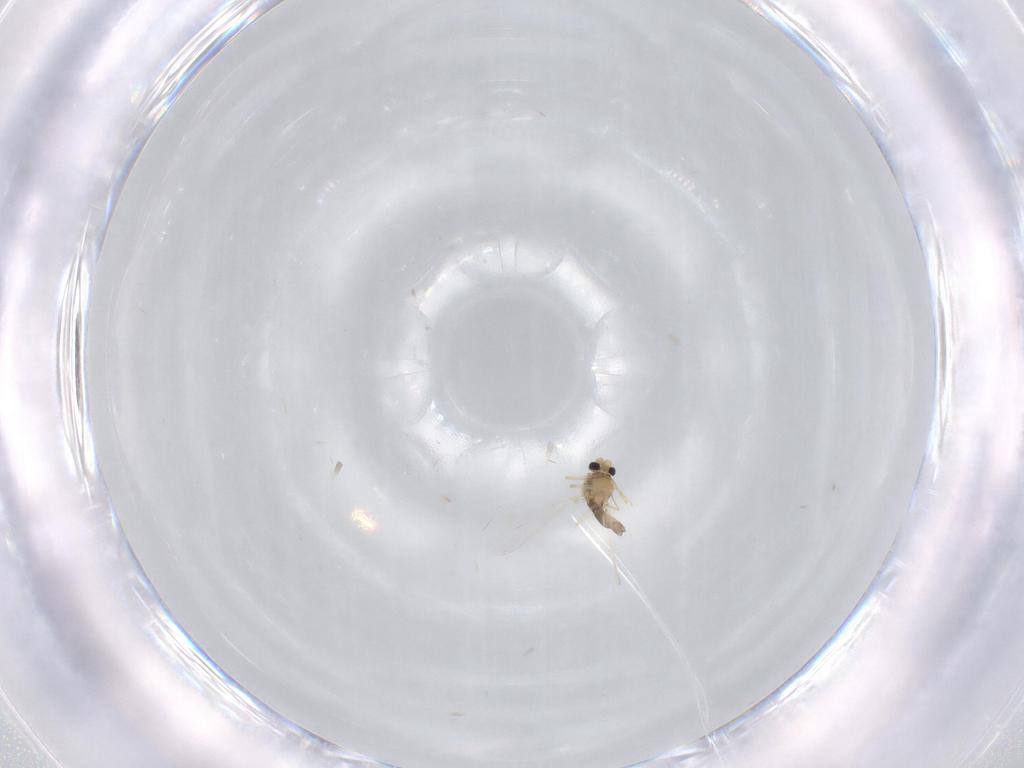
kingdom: Animalia
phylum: Arthropoda
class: Insecta
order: Diptera
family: Chironomidae
